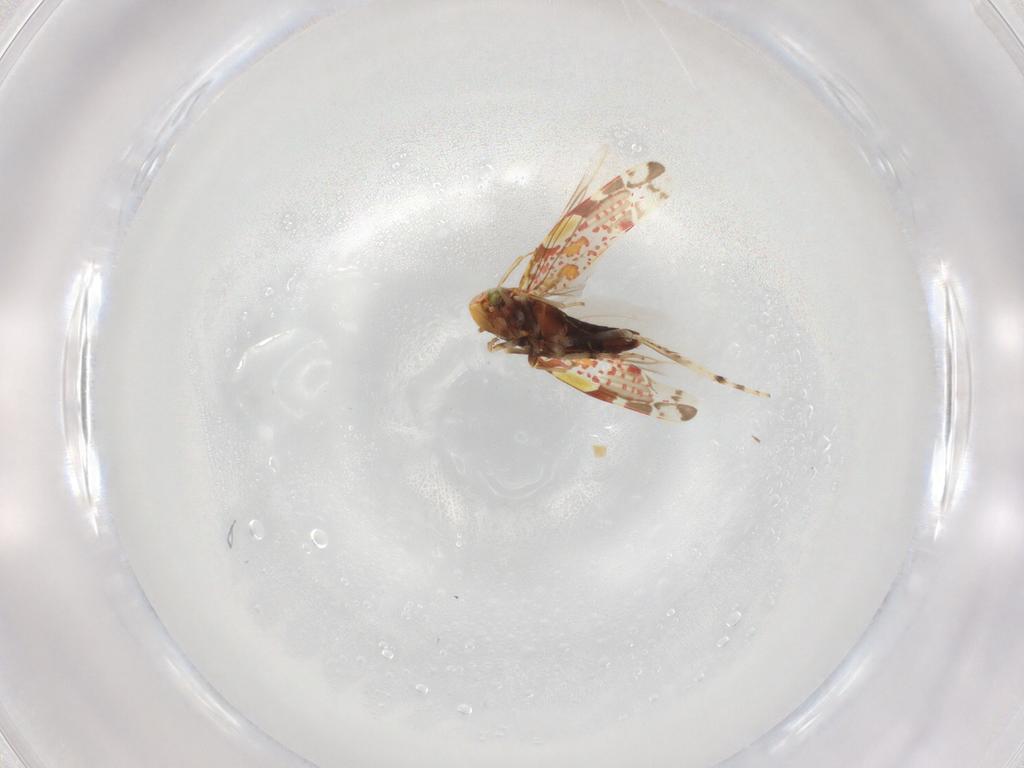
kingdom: Animalia
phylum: Arthropoda
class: Insecta
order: Hemiptera
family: Cicadellidae
